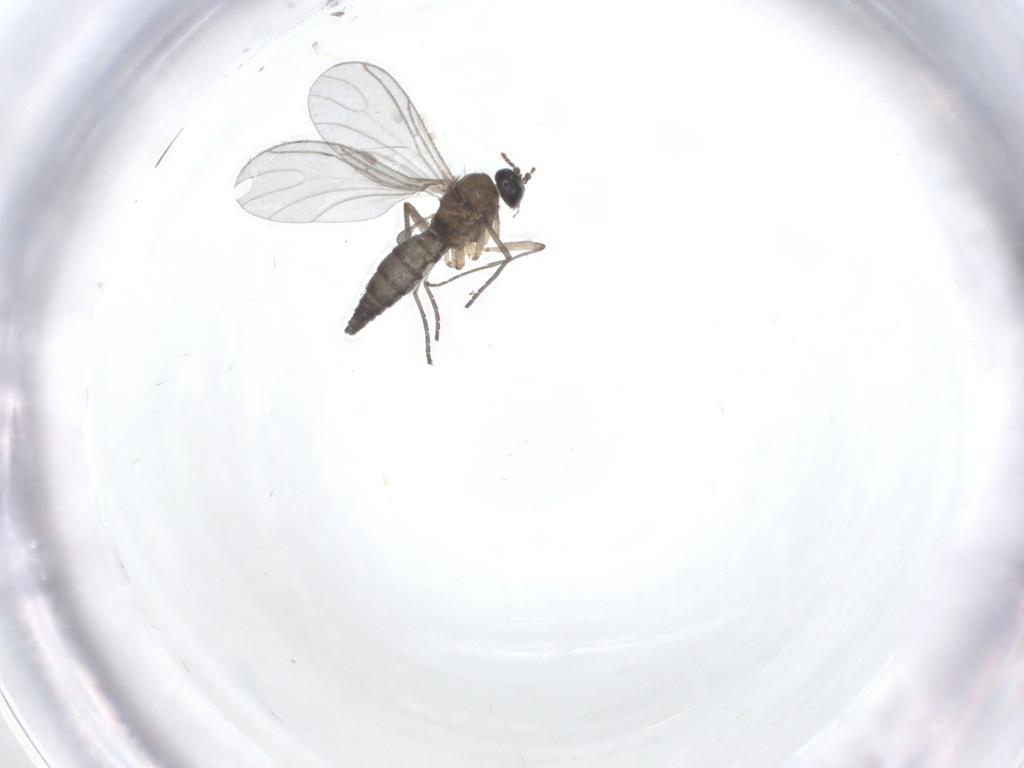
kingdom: Animalia
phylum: Arthropoda
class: Insecta
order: Diptera
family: Sciaridae
